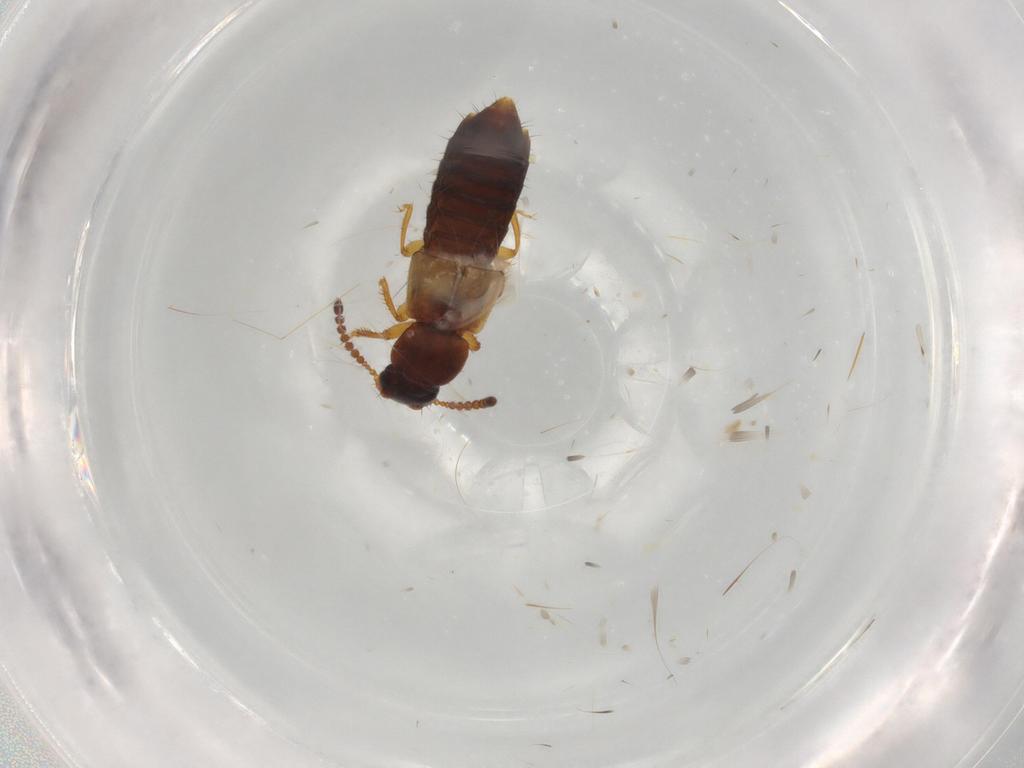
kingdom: Animalia
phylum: Arthropoda
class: Insecta
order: Coleoptera
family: Carabidae
